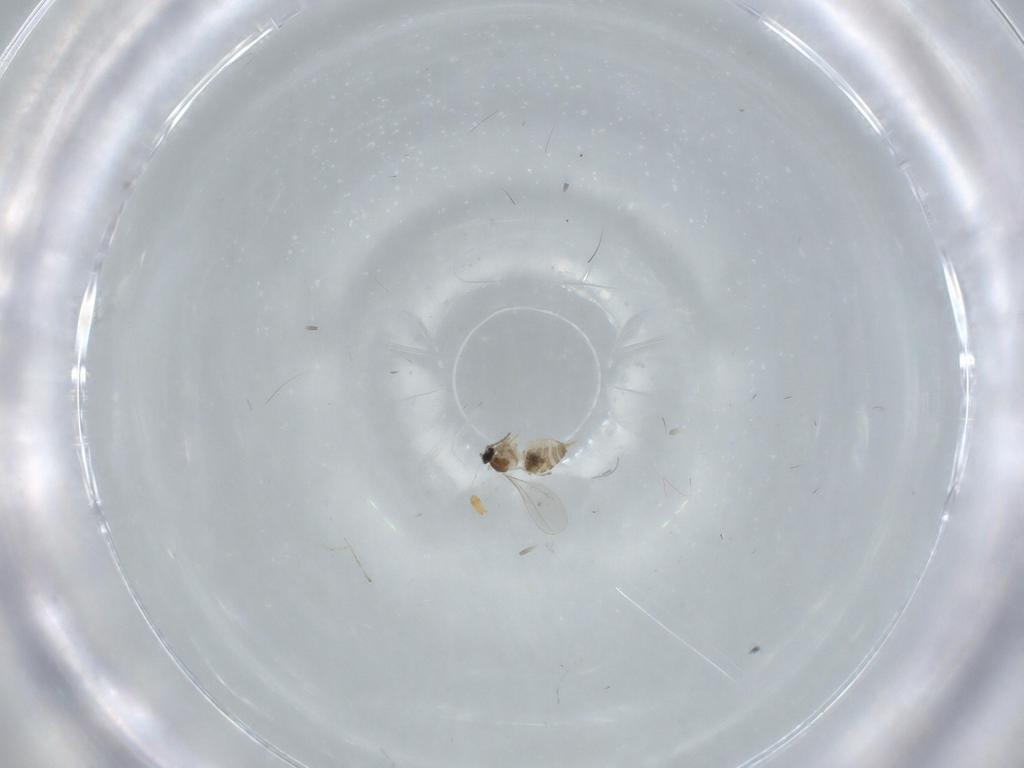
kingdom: Animalia
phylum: Arthropoda
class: Insecta
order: Diptera
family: Cecidomyiidae
